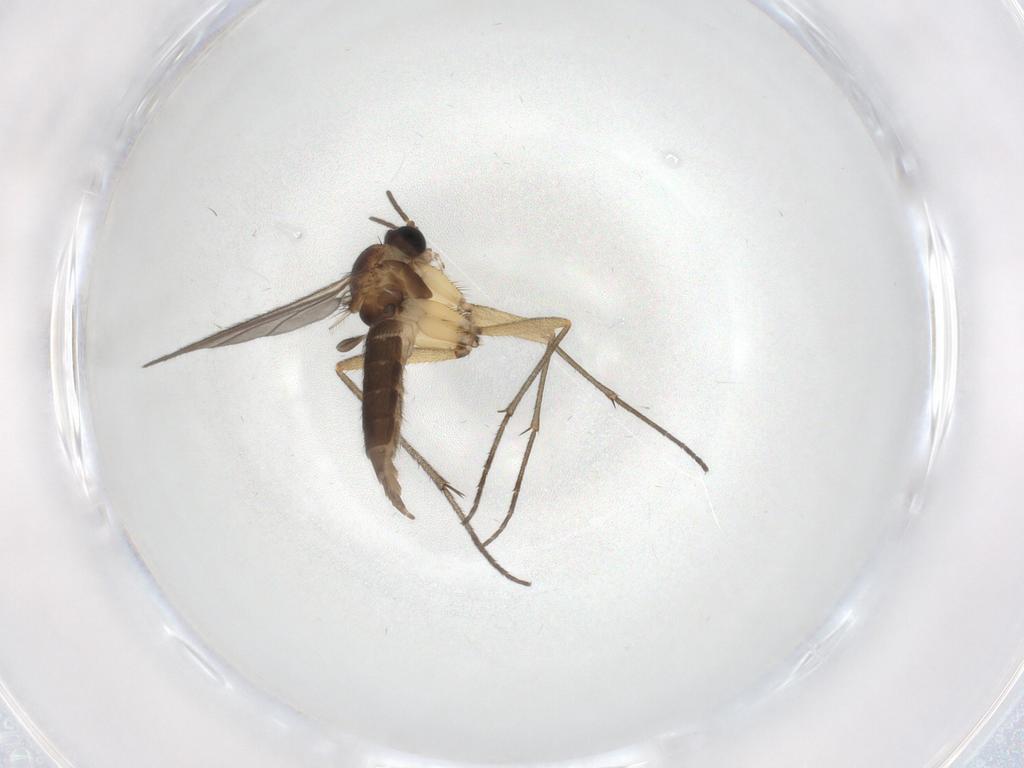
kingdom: Animalia
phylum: Arthropoda
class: Insecta
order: Diptera
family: Sciaridae
